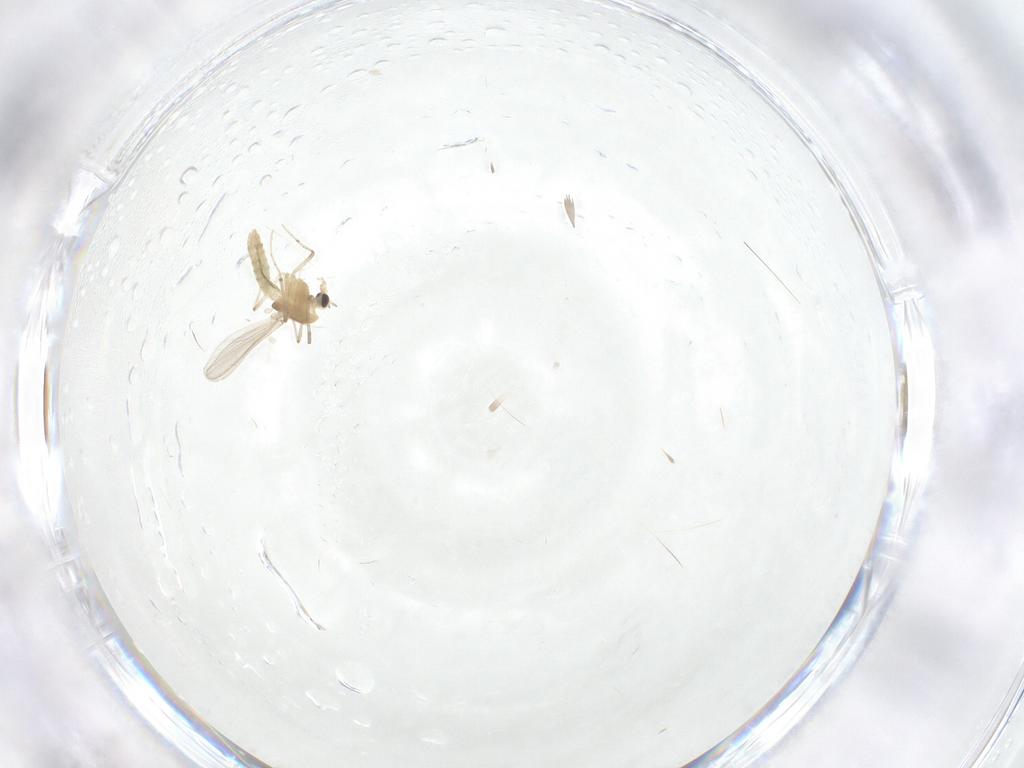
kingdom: Animalia
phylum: Arthropoda
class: Insecta
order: Diptera
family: Chironomidae
